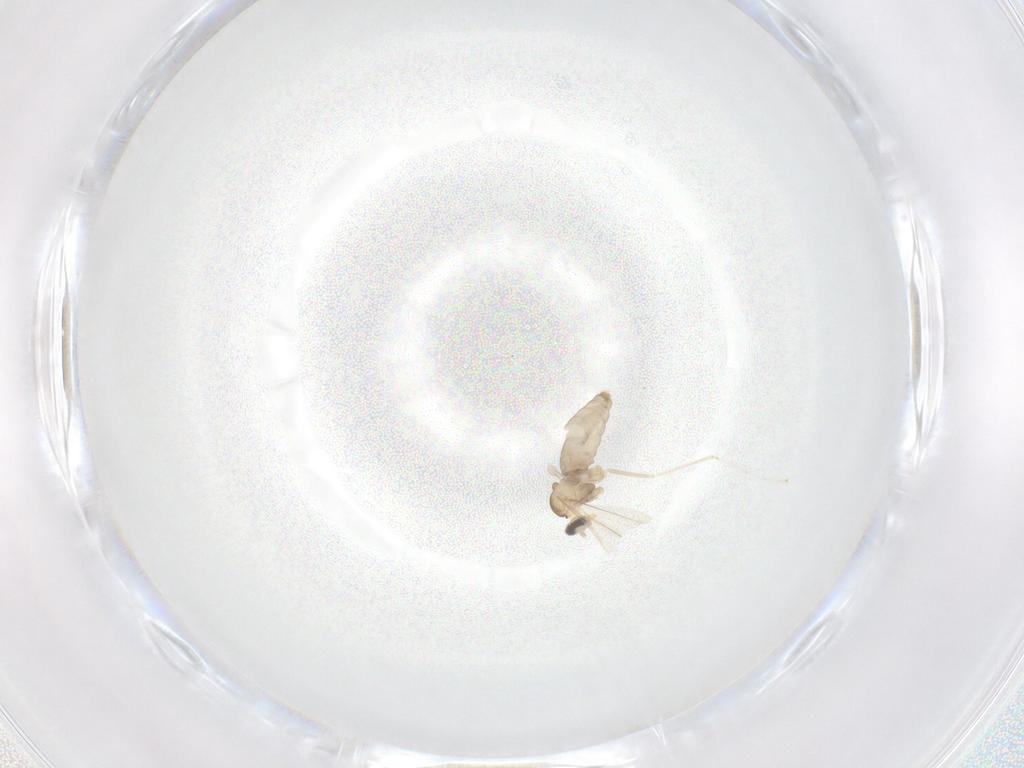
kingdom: Animalia
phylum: Arthropoda
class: Insecta
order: Diptera
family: Cecidomyiidae
